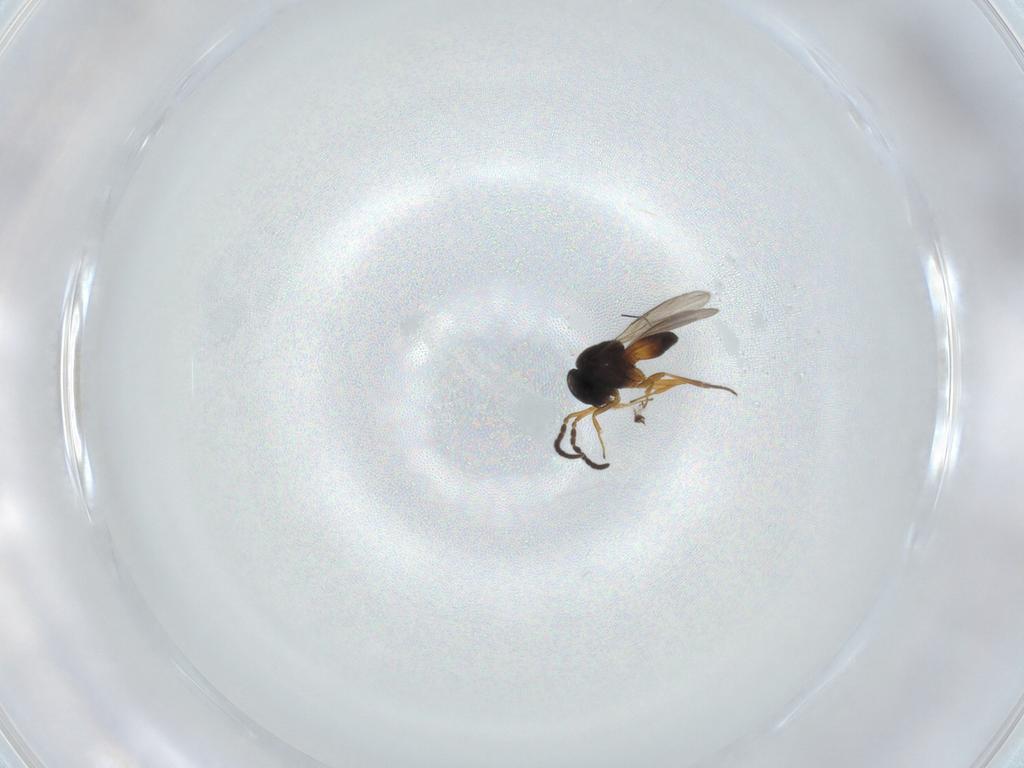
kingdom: Animalia
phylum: Arthropoda
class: Insecta
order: Hymenoptera
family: Scelionidae
